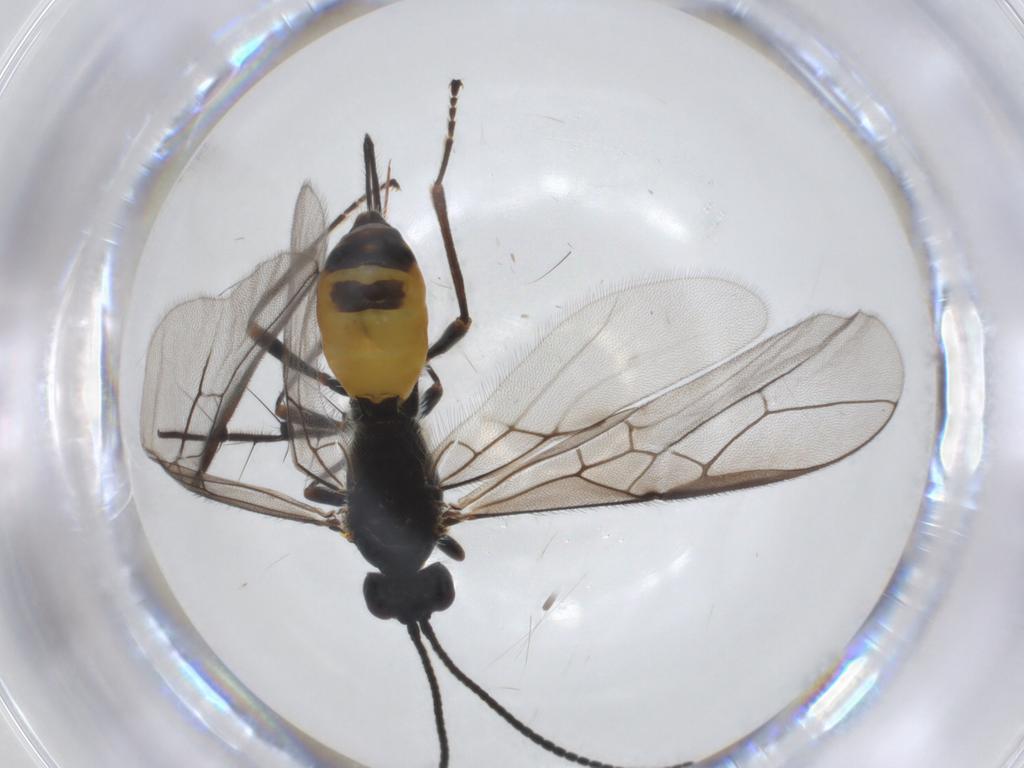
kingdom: Animalia
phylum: Arthropoda
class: Insecta
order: Hymenoptera
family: Braconidae
